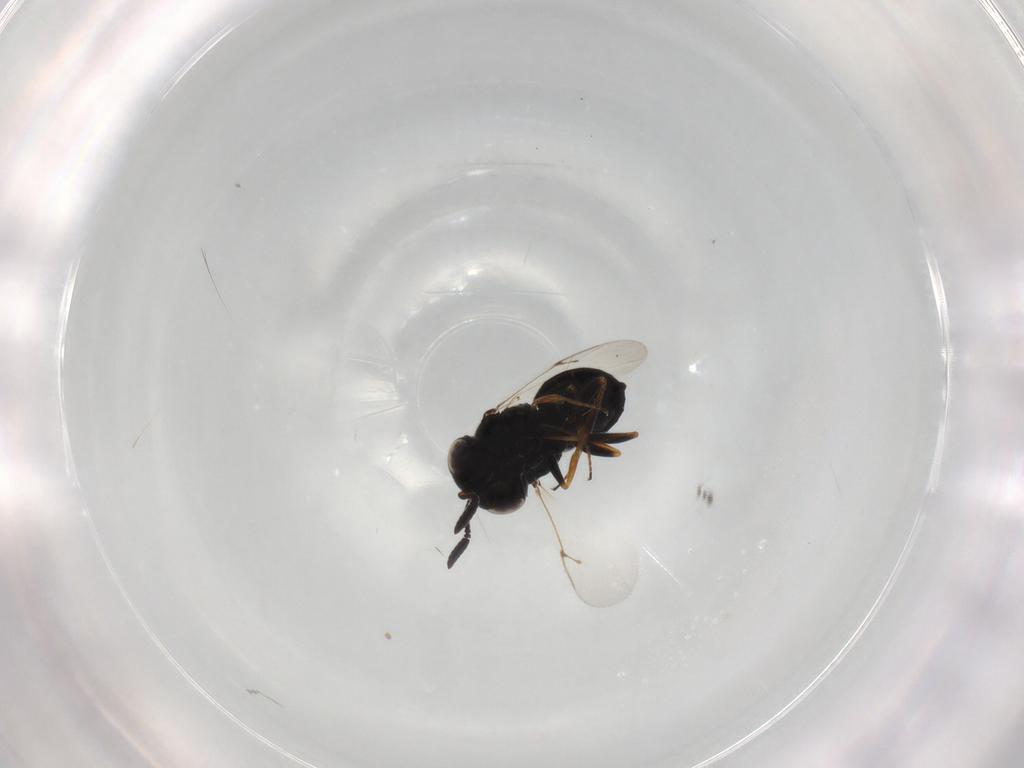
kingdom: Animalia
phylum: Arthropoda
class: Insecta
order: Hymenoptera
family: Scelionidae
